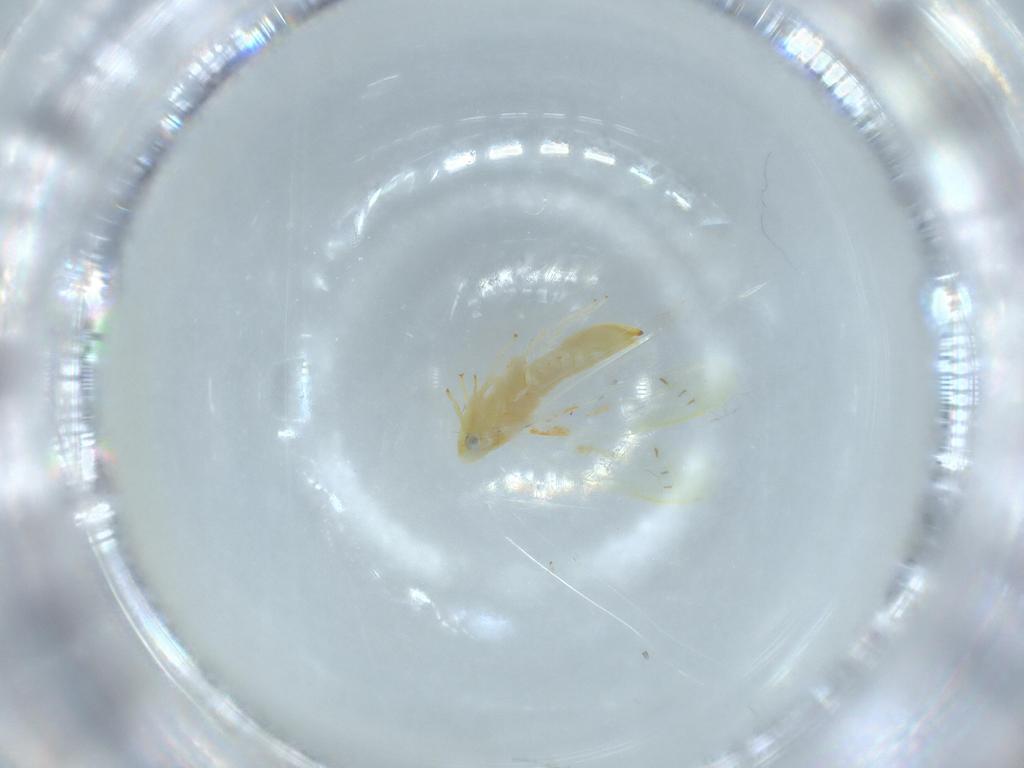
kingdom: Animalia
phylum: Arthropoda
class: Insecta
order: Hemiptera
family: Cicadellidae
